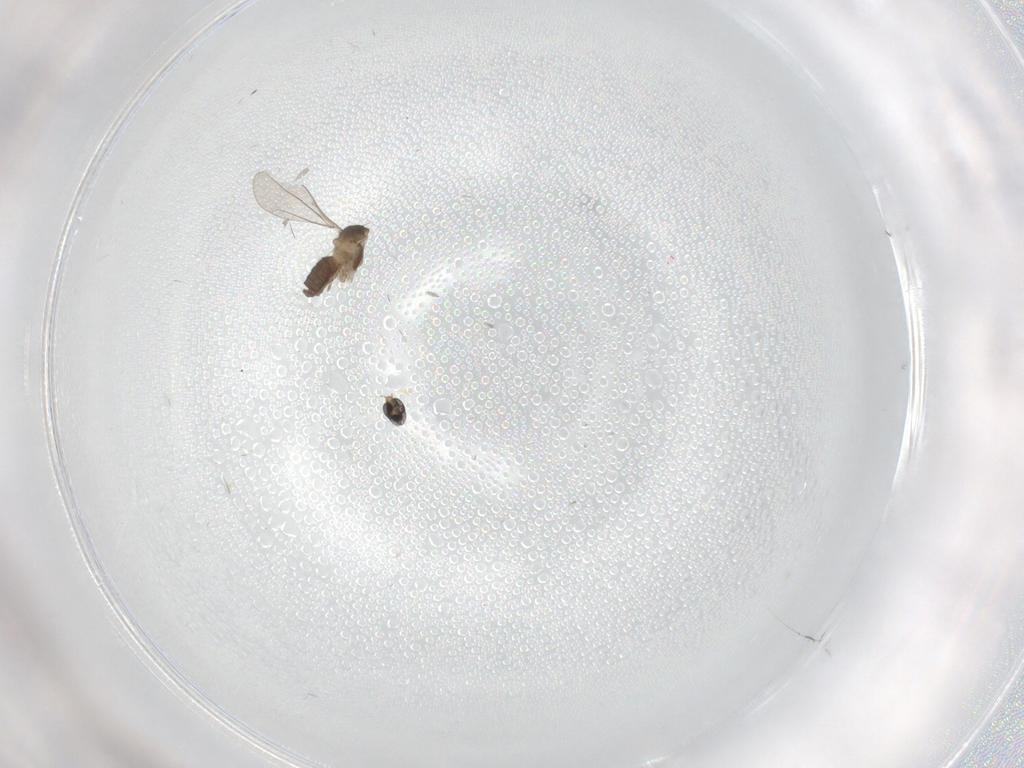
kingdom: Animalia
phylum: Arthropoda
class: Insecta
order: Diptera
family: Cecidomyiidae
